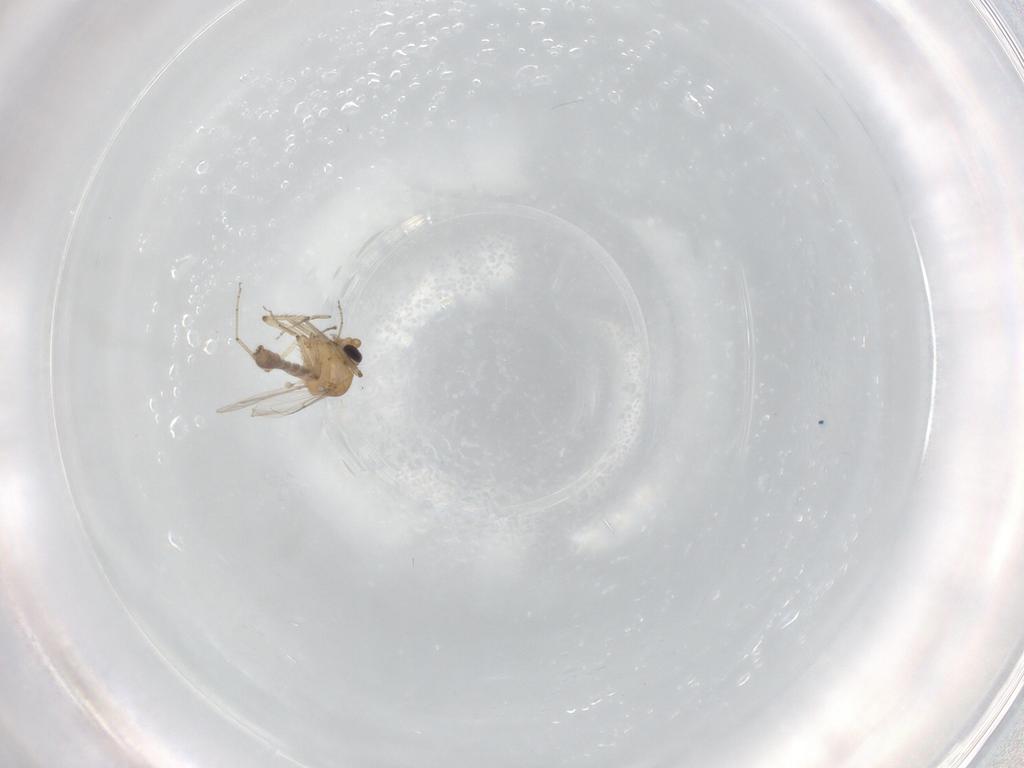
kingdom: Animalia
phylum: Arthropoda
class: Insecta
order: Diptera
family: Ceratopogonidae
